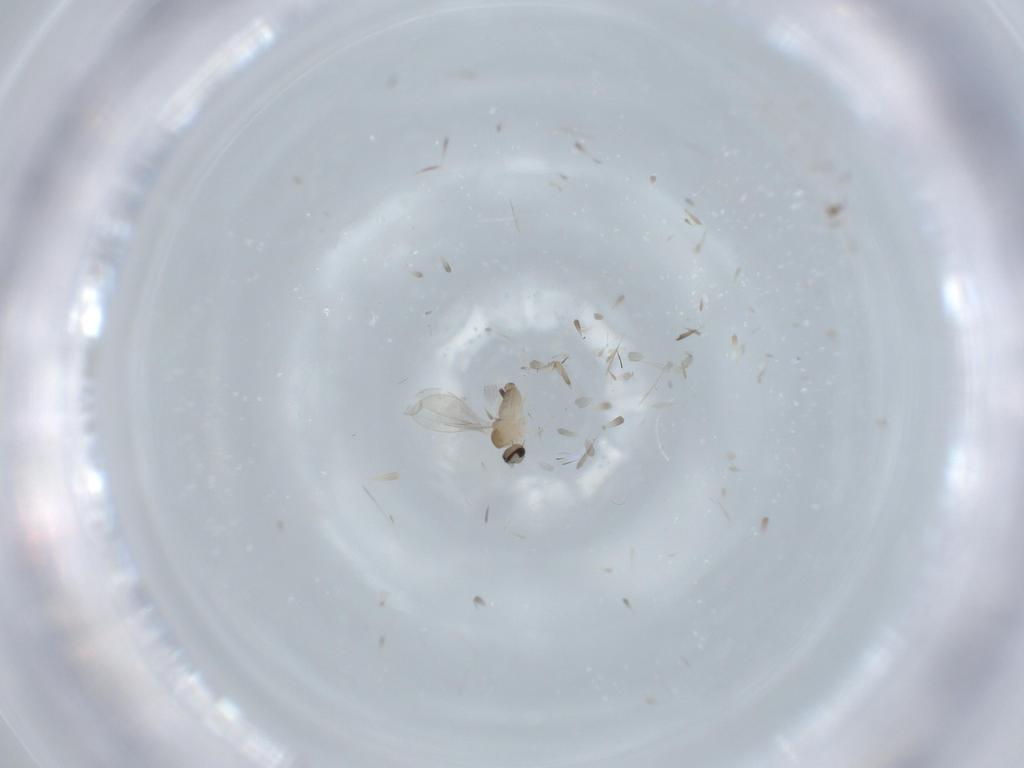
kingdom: Animalia
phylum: Arthropoda
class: Insecta
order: Diptera
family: Cecidomyiidae
